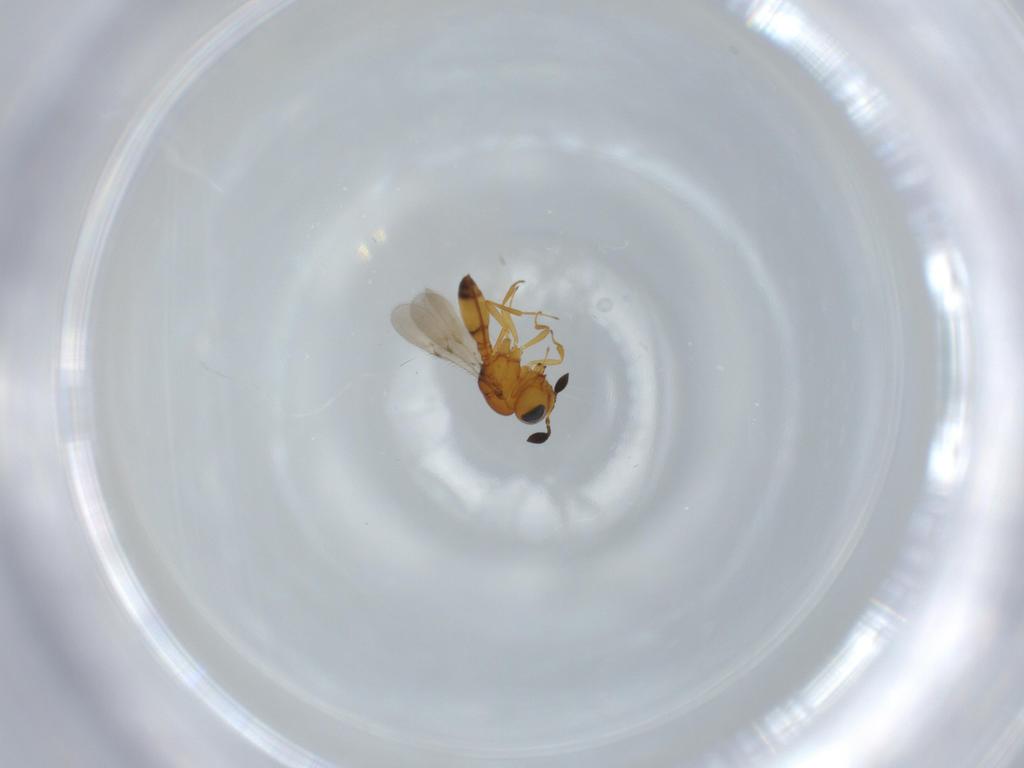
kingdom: Animalia
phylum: Arthropoda
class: Insecta
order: Hymenoptera
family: Scelionidae
